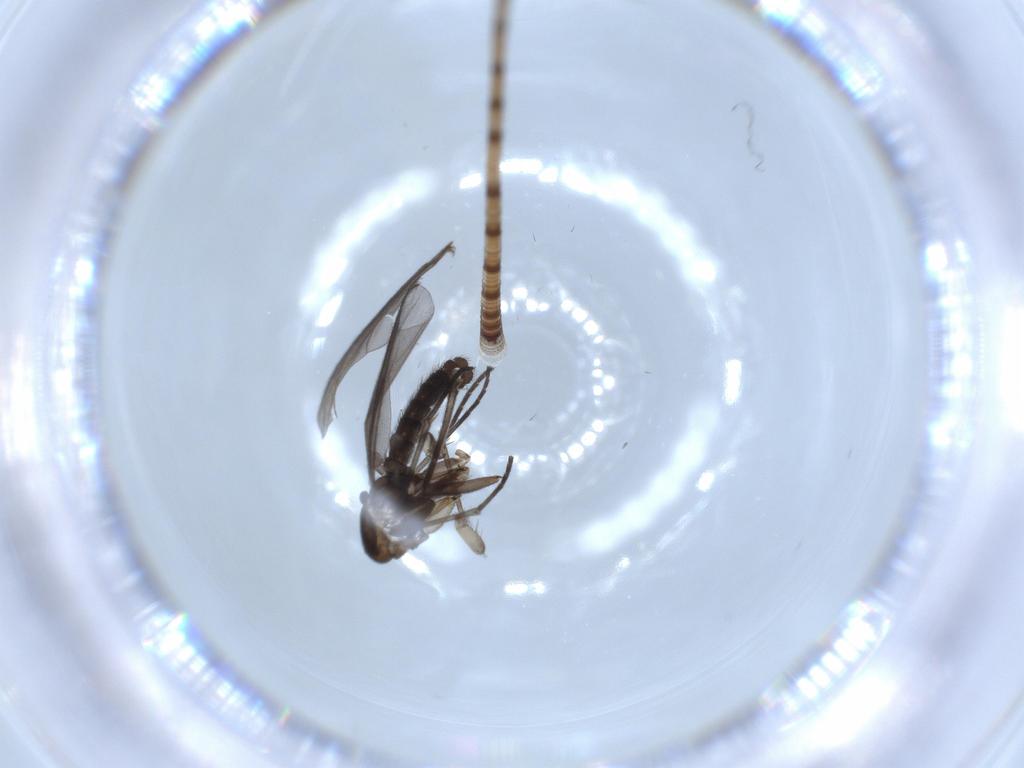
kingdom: Animalia
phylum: Arthropoda
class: Insecta
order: Diptera
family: Sciaridae
